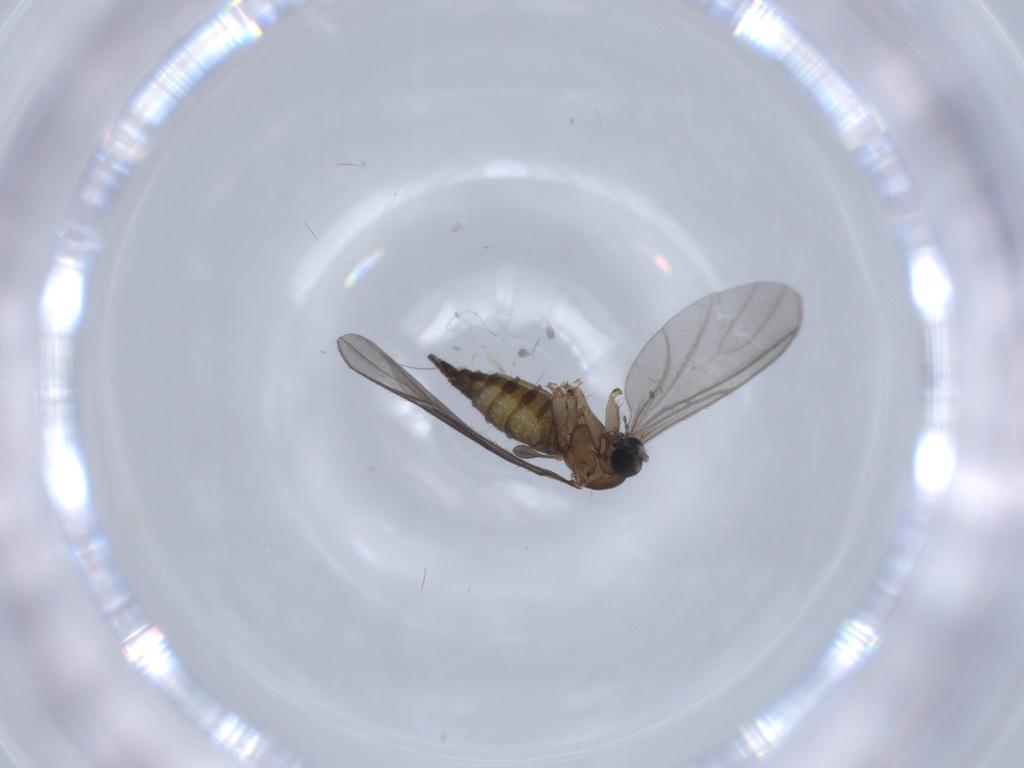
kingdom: Animalia
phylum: Arthropoda
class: Insecta
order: Diptera
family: Sciaridae
